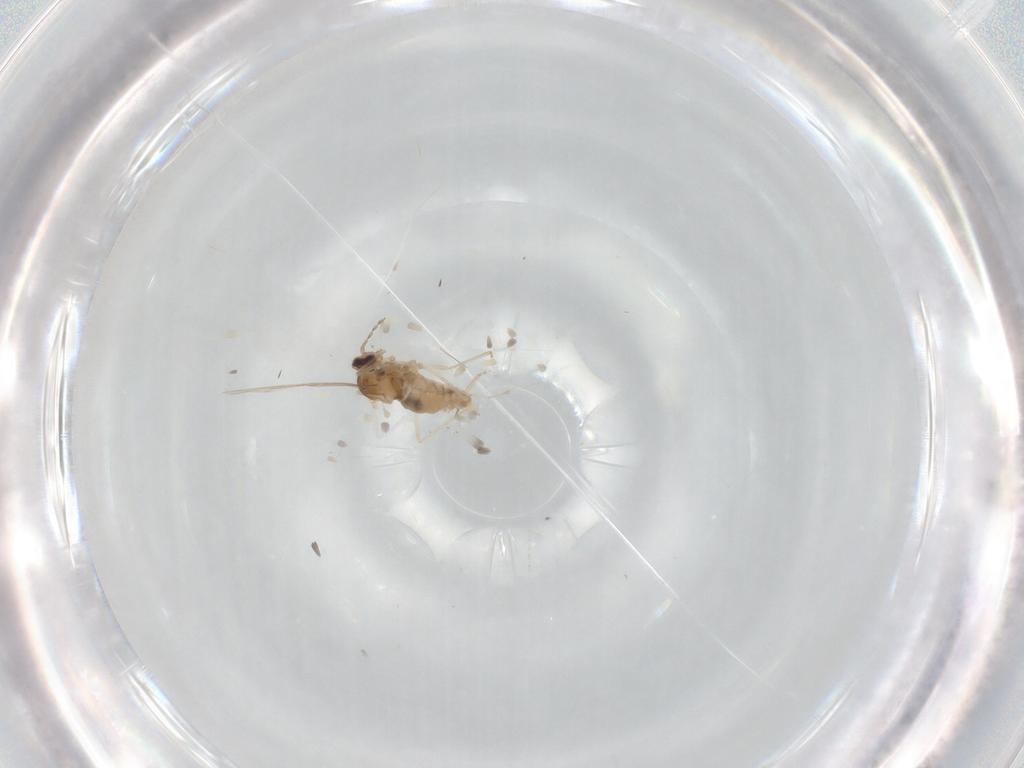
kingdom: Animalia
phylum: Arthropoda
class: Insecta
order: Diptera
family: Cecidomyiidae
